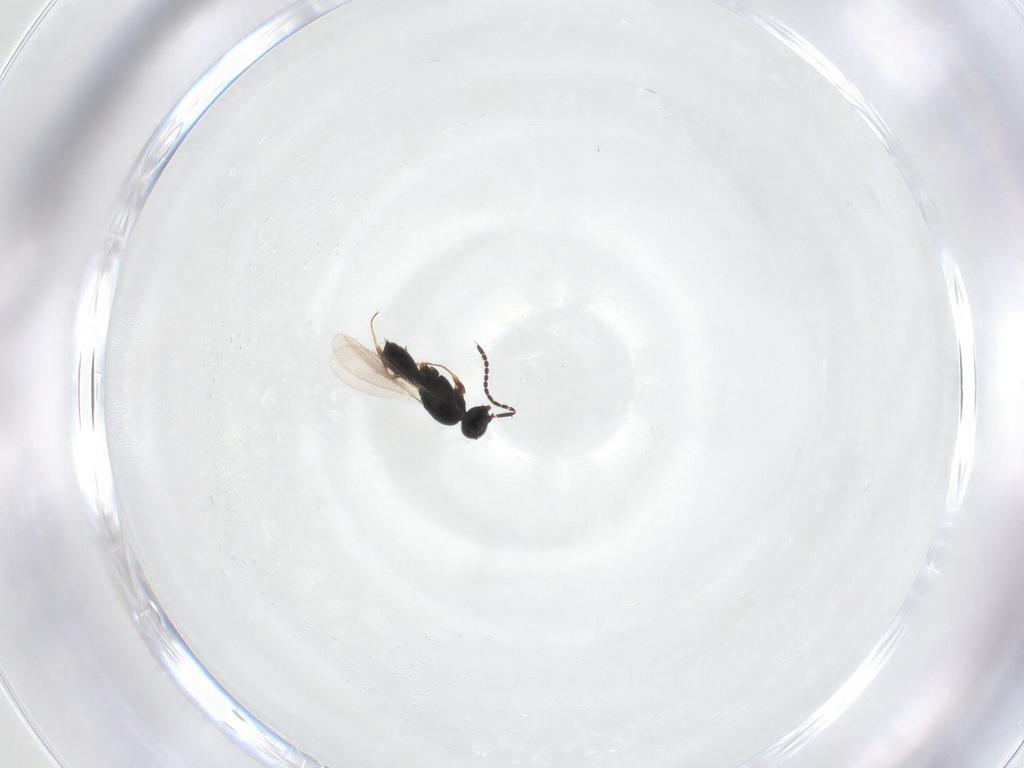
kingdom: Animalia
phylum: Arthropoda
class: Insecta
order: Hymenoptera
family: Scelionidae
